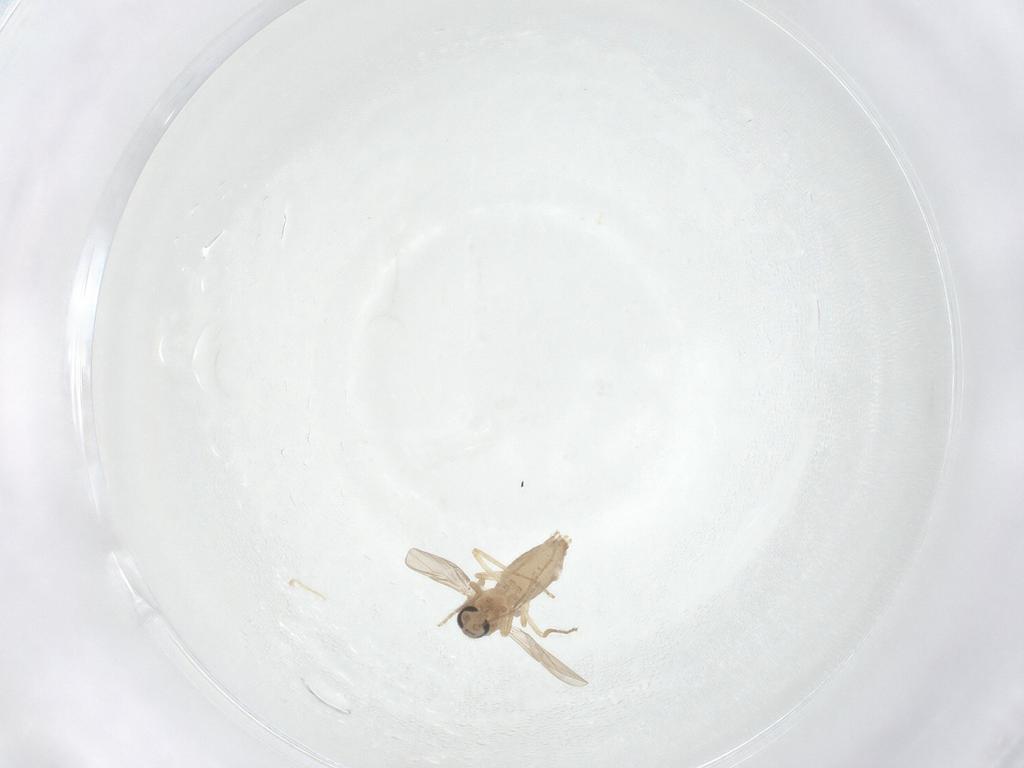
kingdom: Animalia
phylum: Arthropoda
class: Insecta
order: Diptera
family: Ceratopogonidae
